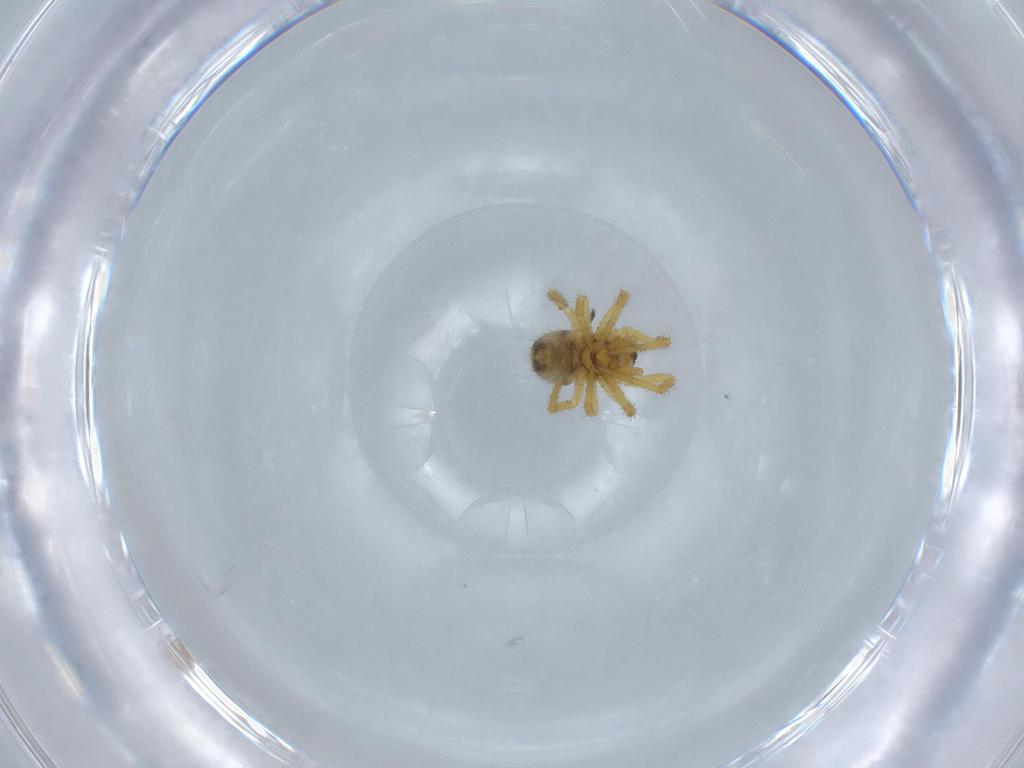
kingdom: Animalia
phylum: Arthropoda
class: Arachnida
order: Araneae
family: Theridiidae
